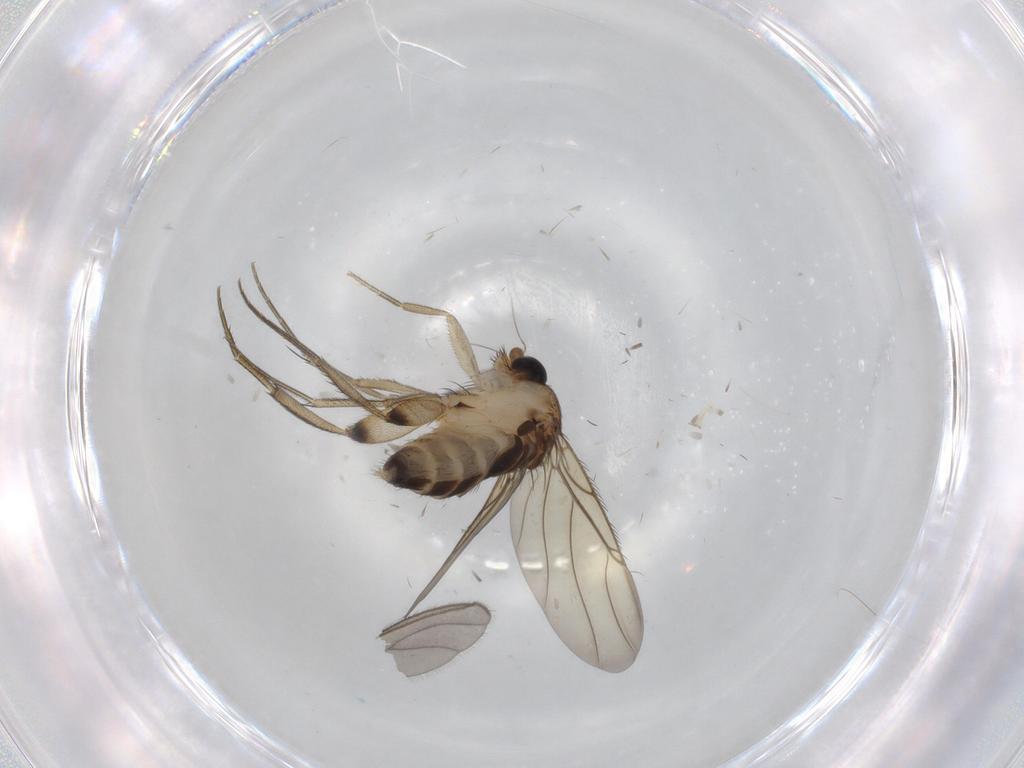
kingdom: Animalia
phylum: Arthropoda
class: Insecta
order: Diptera
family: Sciaridae
